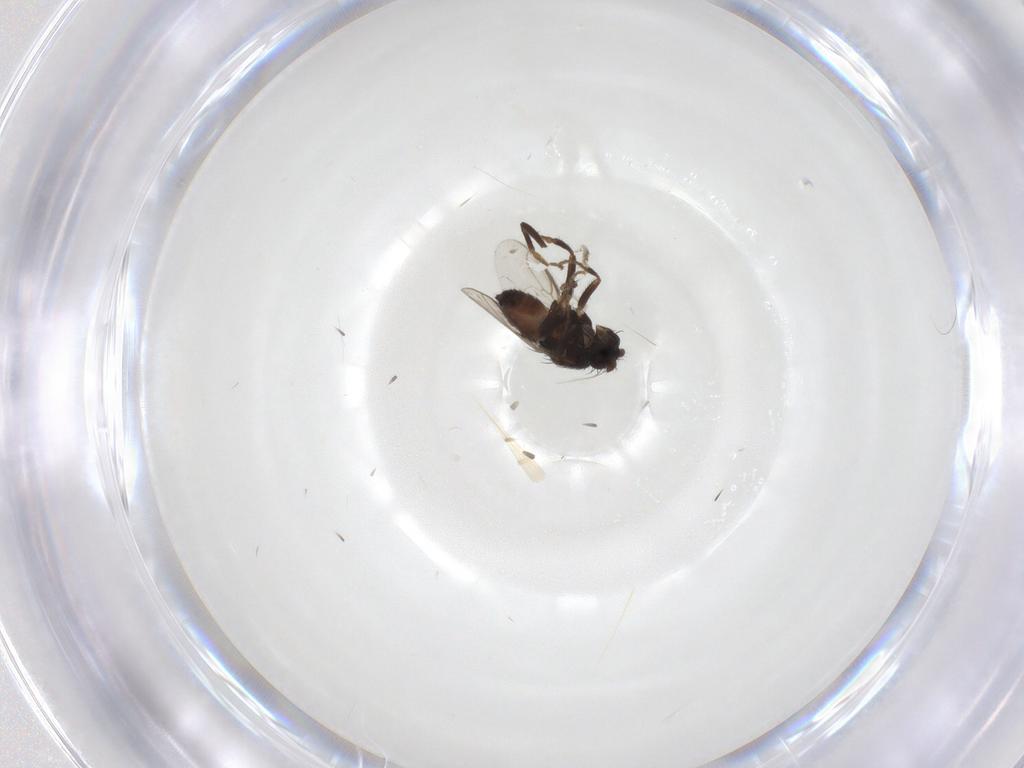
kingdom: Animalia
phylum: Arthropoda
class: Insecta
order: Diptera
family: Sphaeroceridae
